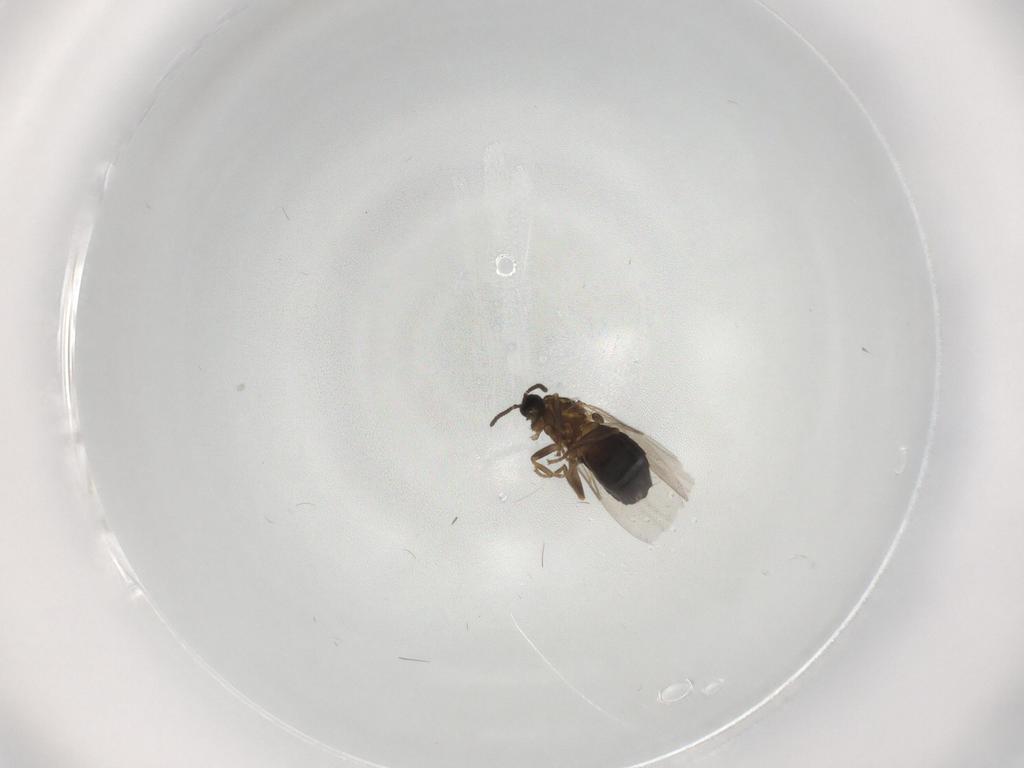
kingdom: Animalia
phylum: Arthropoda
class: Insecta
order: Diptera
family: Scatopsidae
